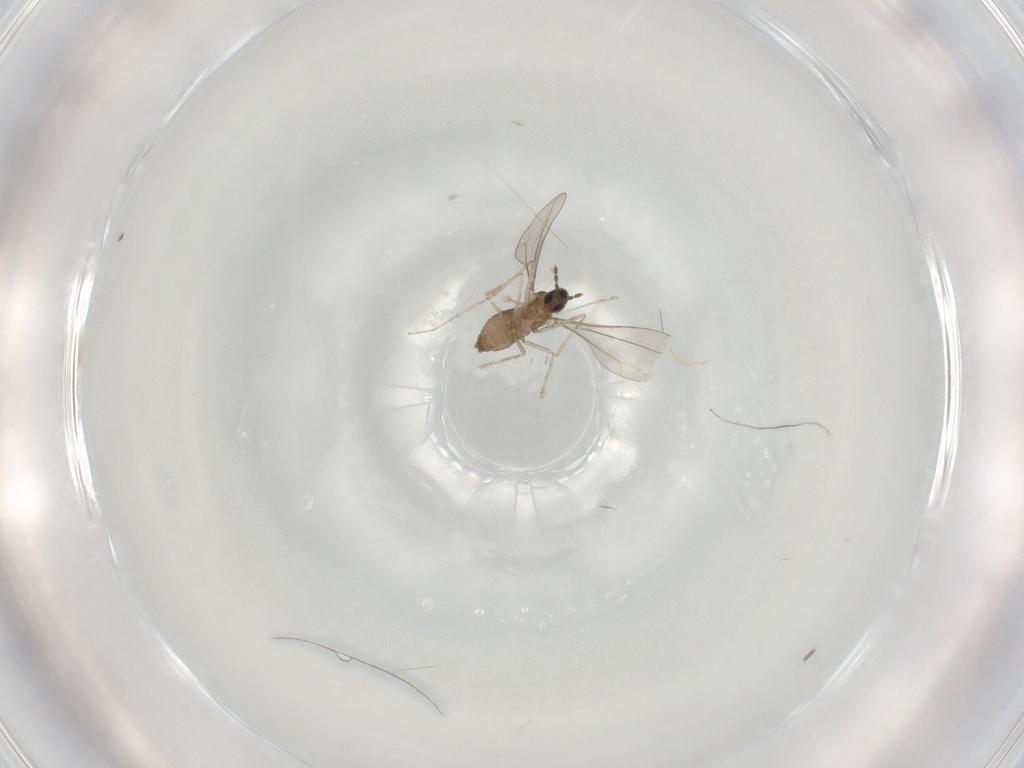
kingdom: Animalia
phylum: Arthropoda
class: Insecta
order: Diptera
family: Cecidomyiidae
